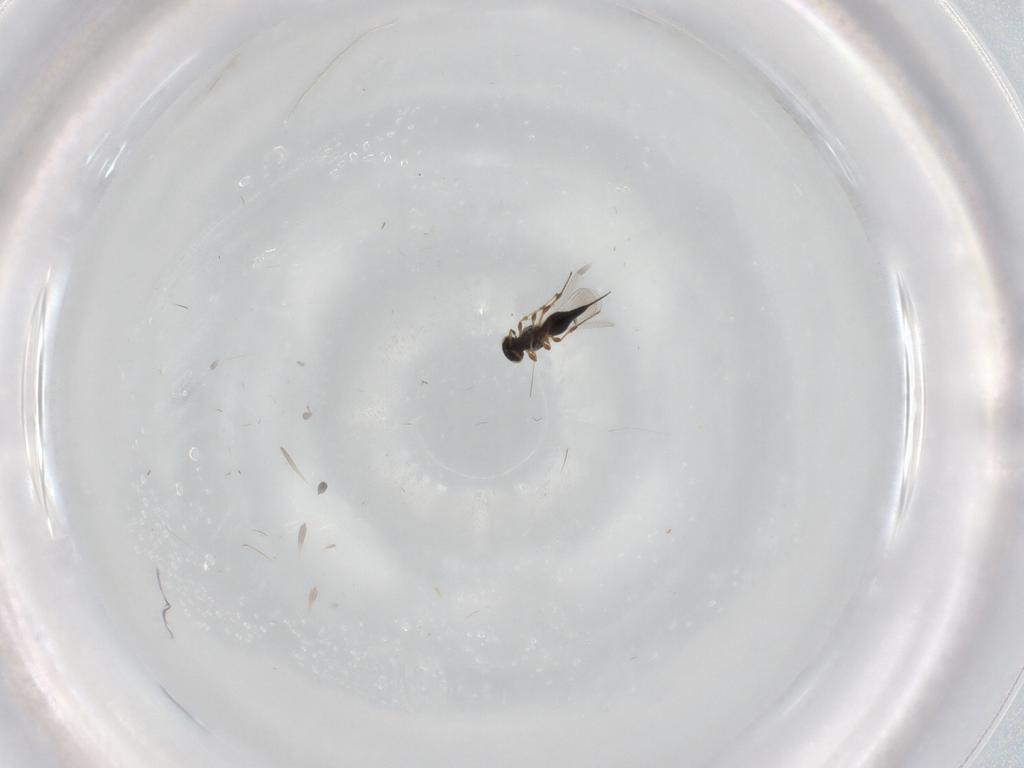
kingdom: Animalia
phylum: Arthropoda
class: Insecta
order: Hymenoptera
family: Platygastridae
